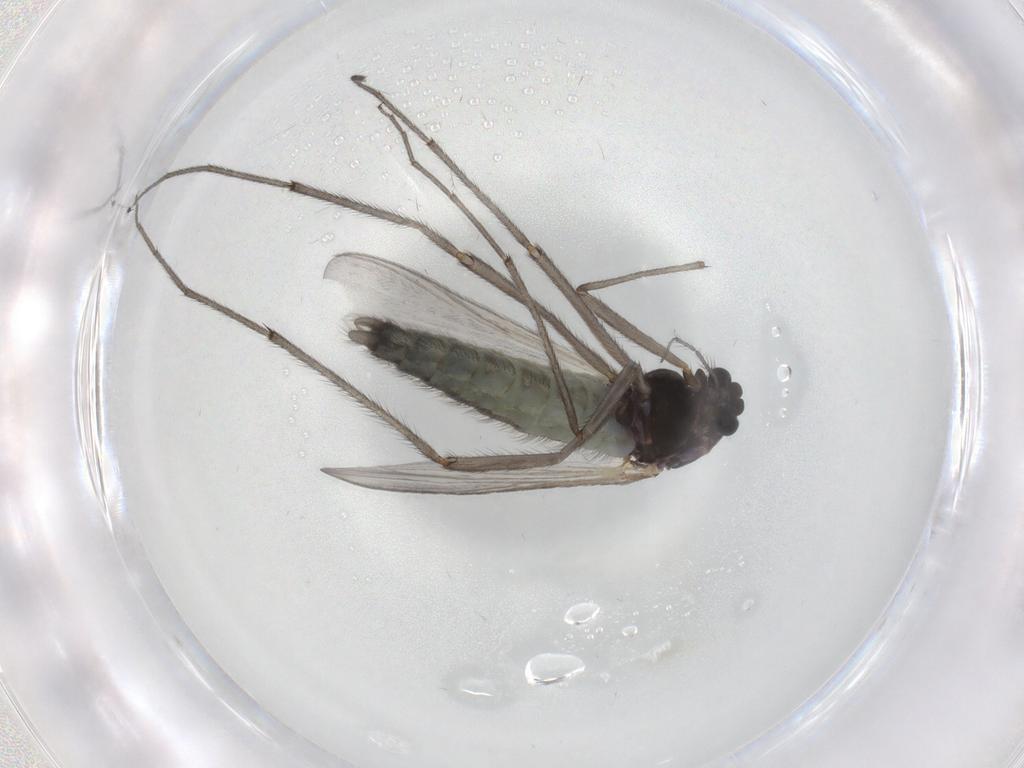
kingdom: Animalia
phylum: Arthropoda
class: Insecta
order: Diptera
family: Chironomidae
